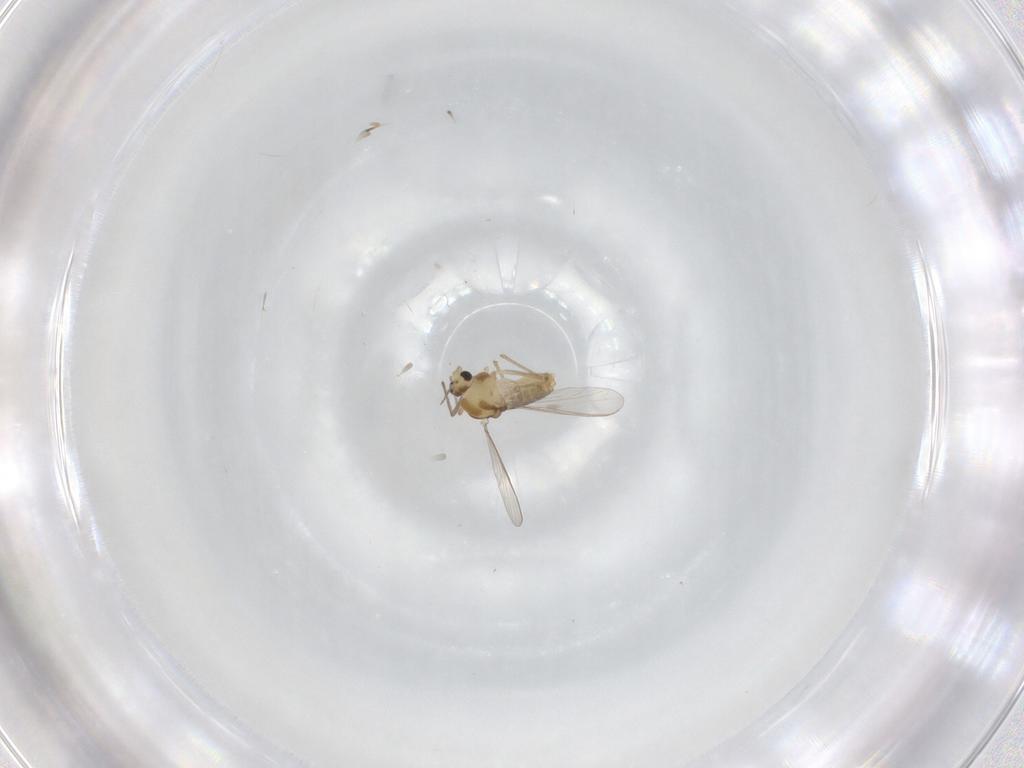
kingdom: Animalia
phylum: Arthropoda
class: Insecta
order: Diptera
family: Chironomidae
